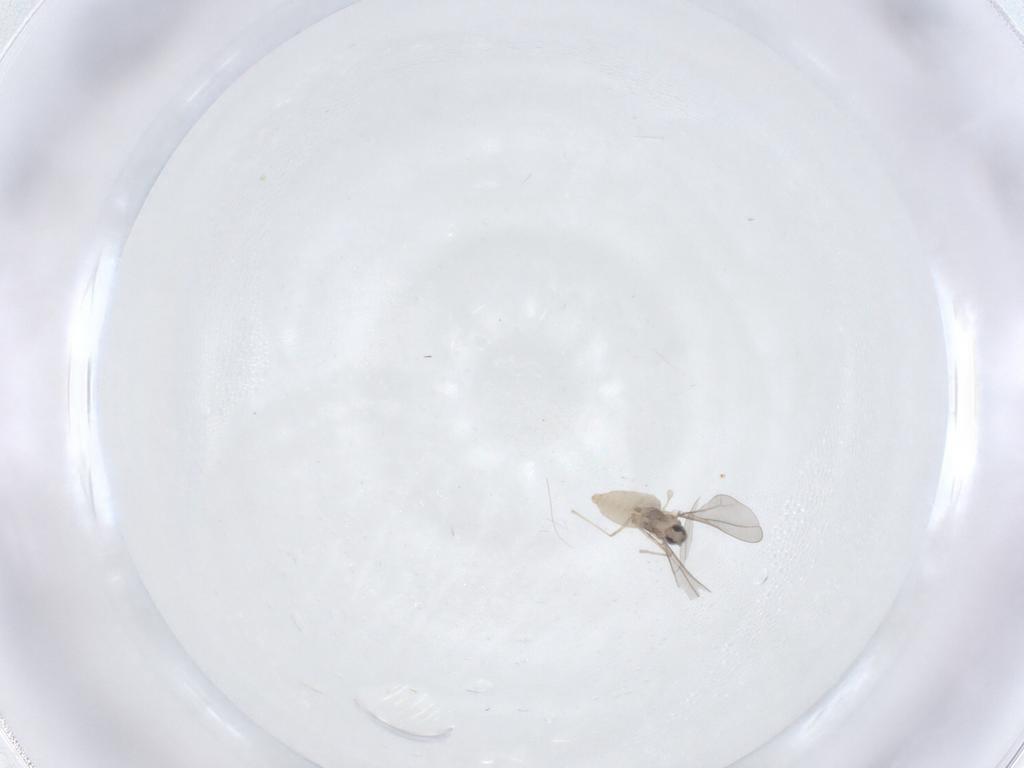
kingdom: Animalia
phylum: Arthropoda
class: Insecta
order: Diptera
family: Cecidomyiidae
